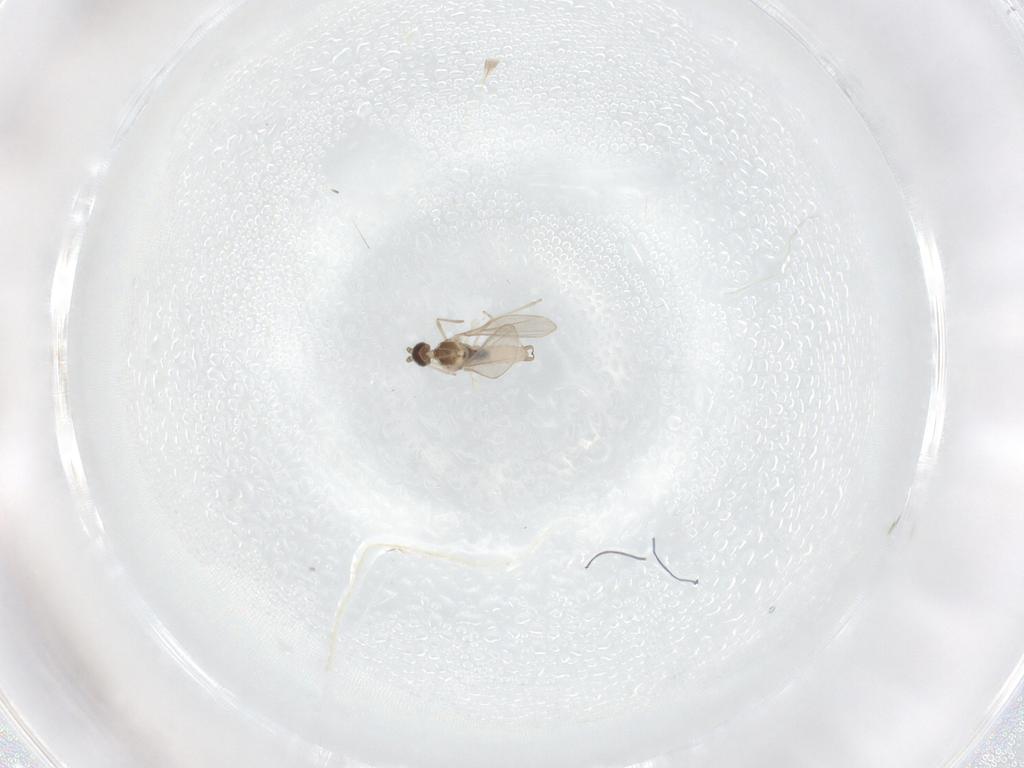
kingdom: Animalia
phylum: Arthropoda
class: Insecta
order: Diptera
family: Cecidomyiidae
